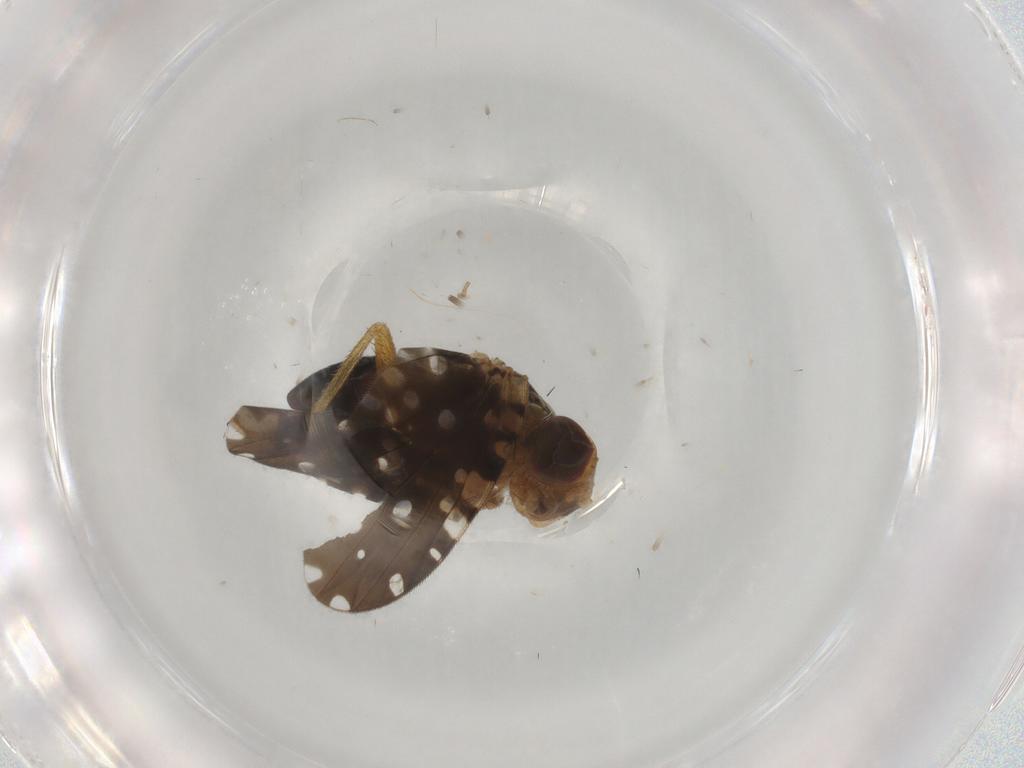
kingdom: Animalia
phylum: Arthropoda
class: Insecta
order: Diptera
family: Tephritidae
